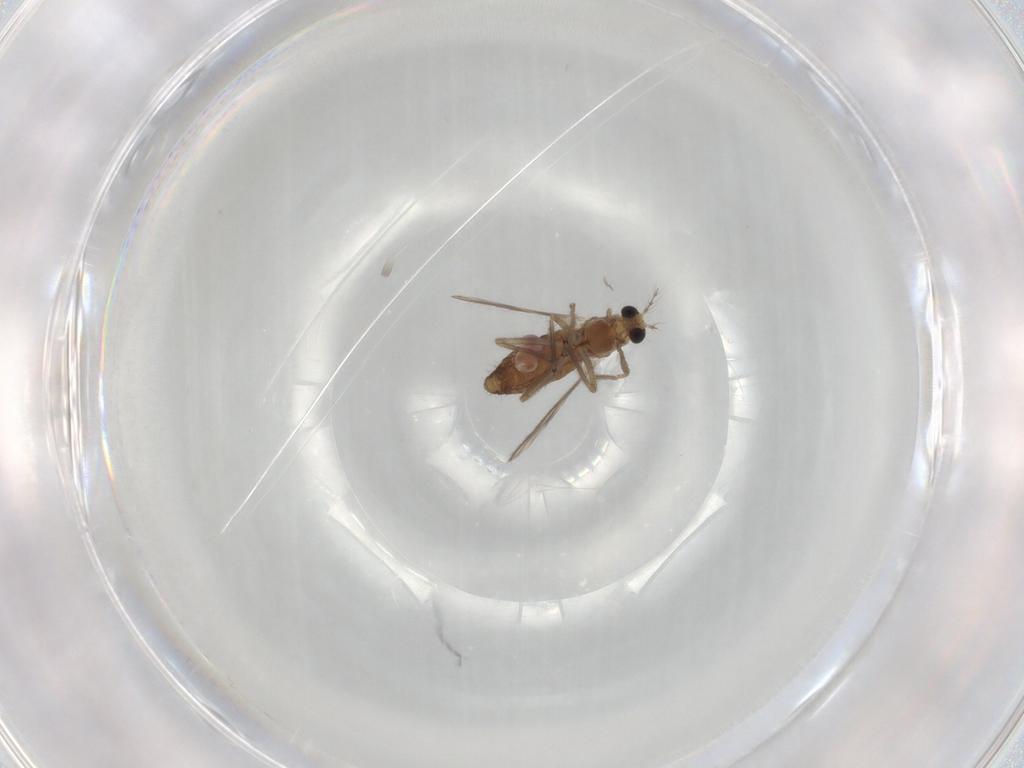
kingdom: Animalia
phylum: Arthropoda
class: Insecta
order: Diptera
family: Chironomidae
